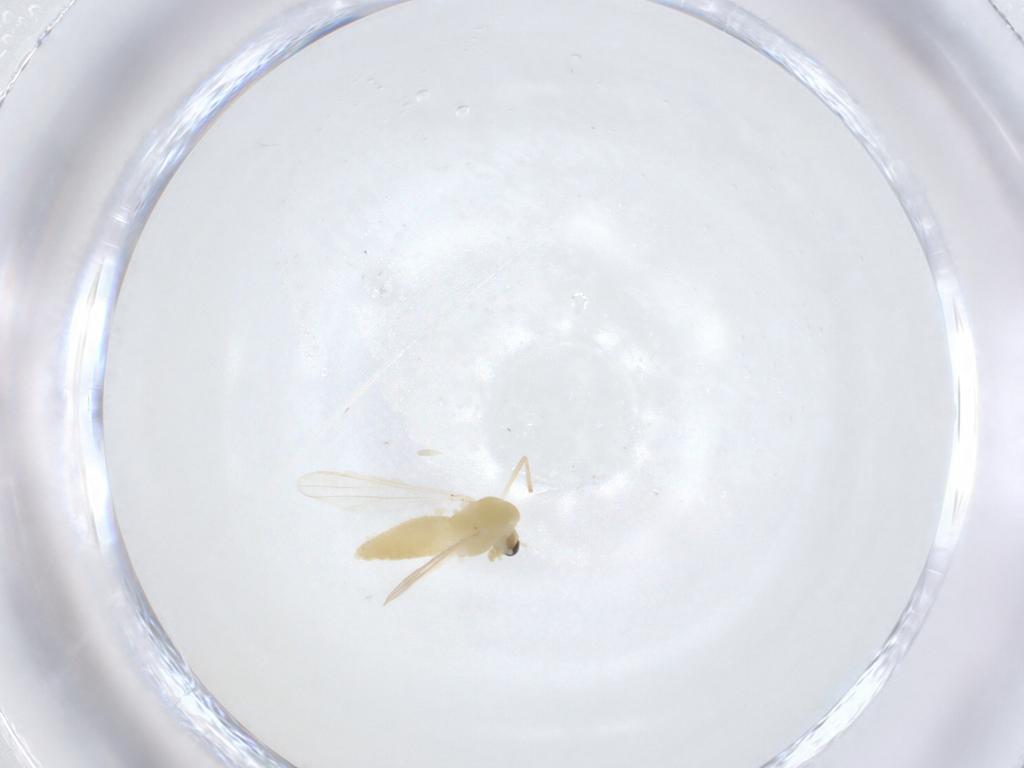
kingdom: Animalia
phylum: Arthropoda
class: Insecta
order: Diptera
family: Chironomidae
